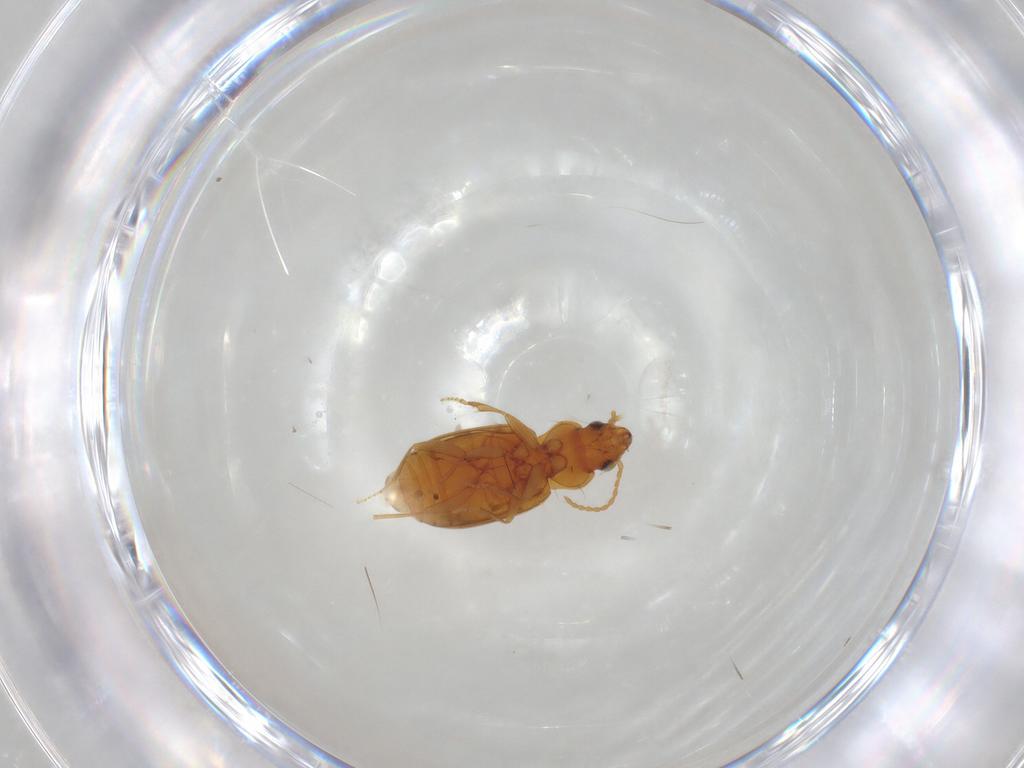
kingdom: Animalia
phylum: Arthropoda
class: Insecta
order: Coleoptera
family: Carabidae
